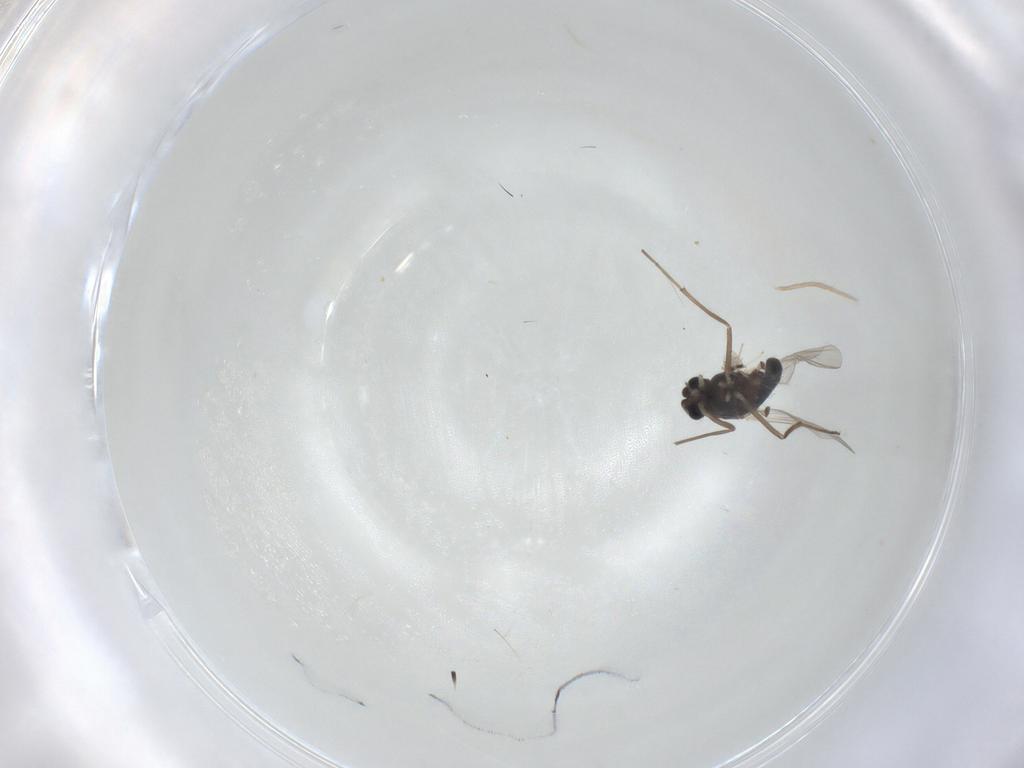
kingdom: Animalia
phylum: Arthropoda
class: Insecta
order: Diptera
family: Chironomidae
